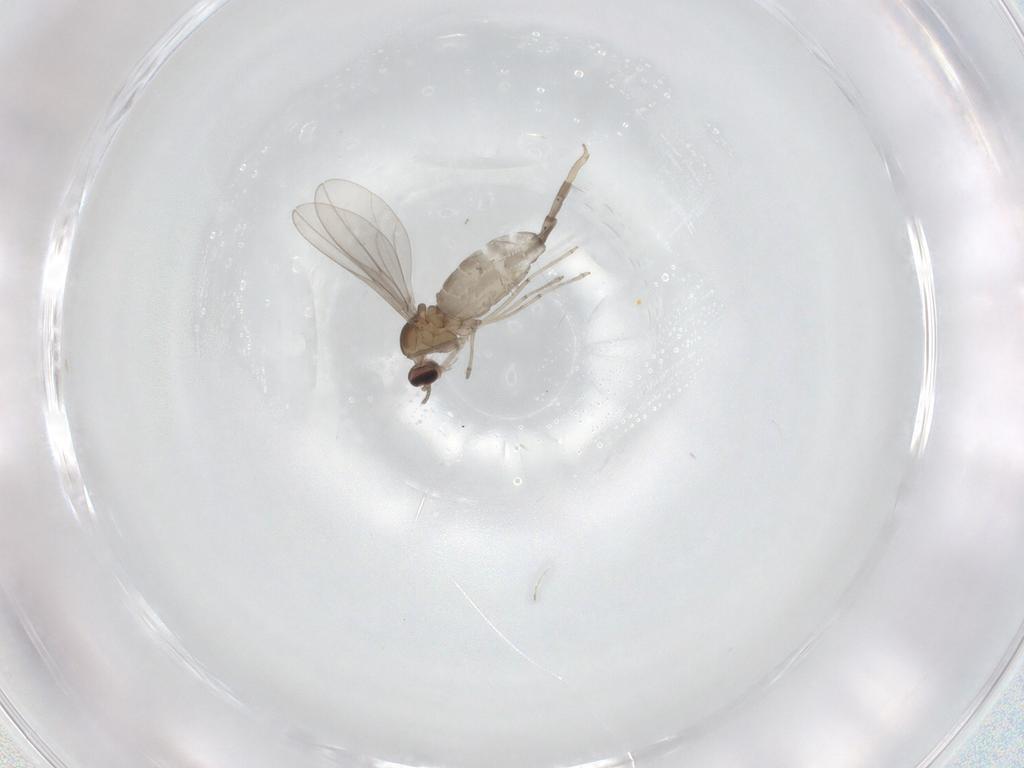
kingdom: Animalia
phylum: Arthropoda
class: Insecta
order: Diptera
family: Cecidomyiidae
